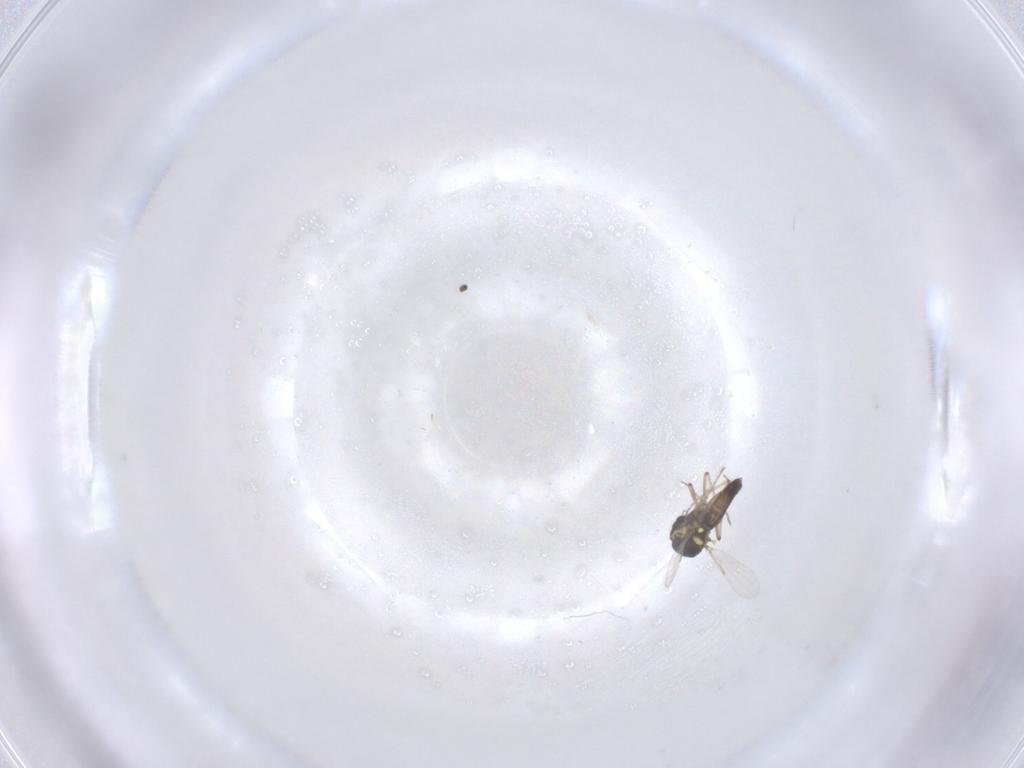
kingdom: Animalia
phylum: Arthropoda
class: Insecta
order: Diptera
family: Ceratopogonidae
